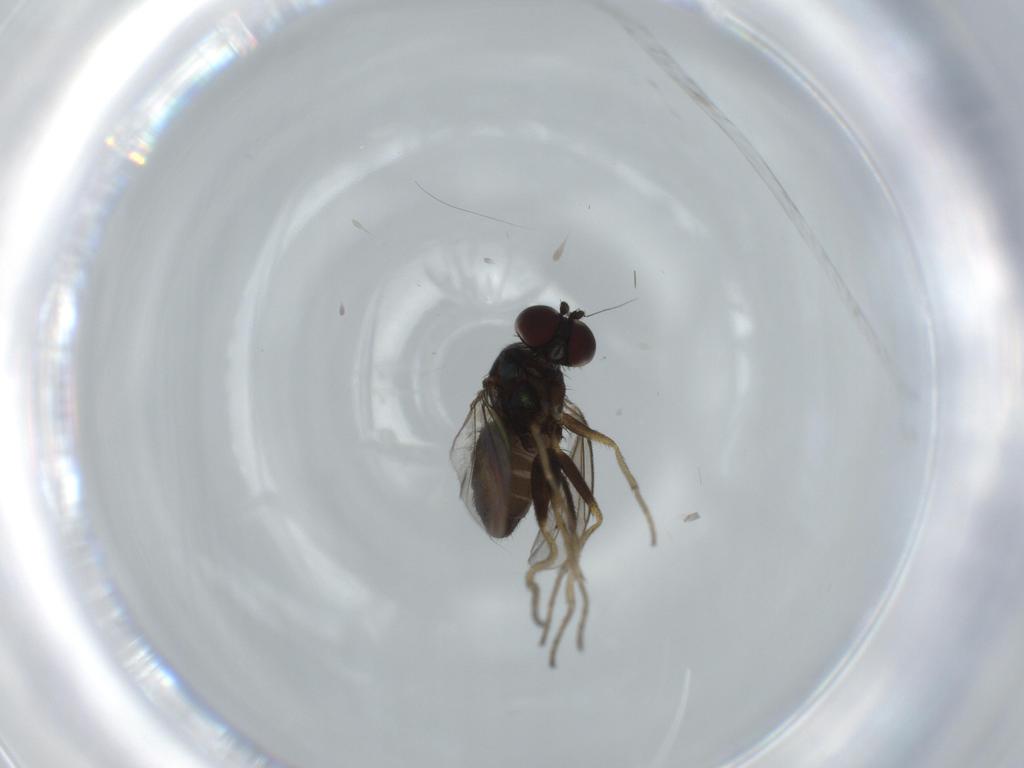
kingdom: Animalia
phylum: Arthropoda
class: Insecta
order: Diptera
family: Dolichopodidae
